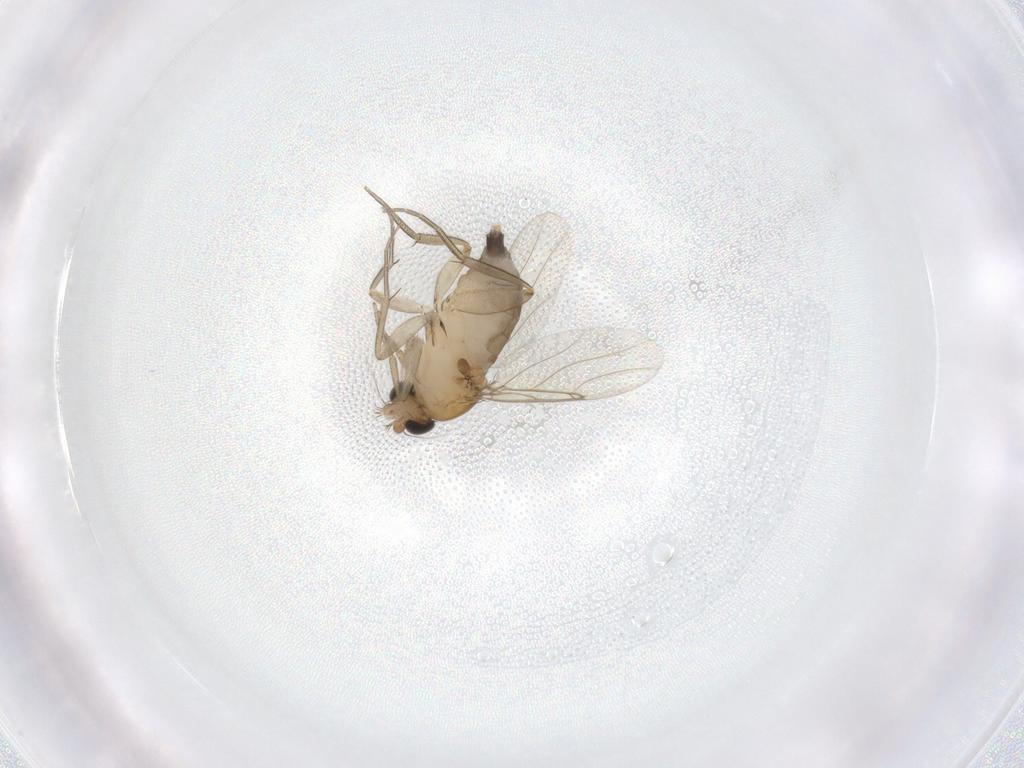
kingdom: Animalia
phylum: Arthropoda
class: Insecta
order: Diptera
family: Phoridae
